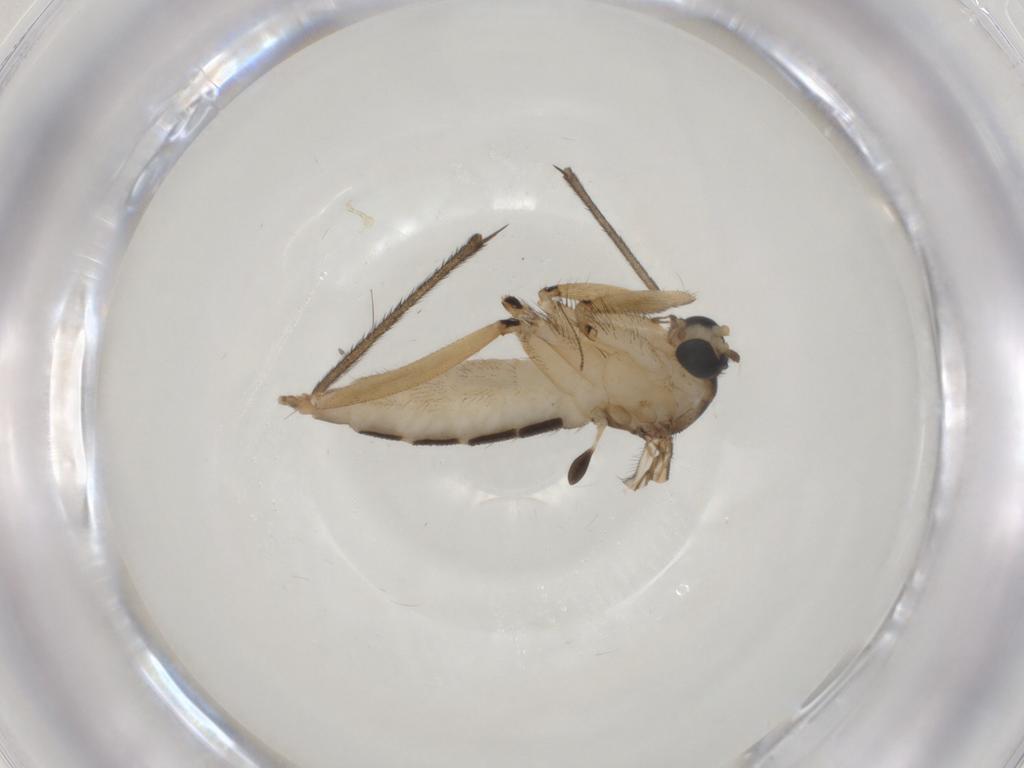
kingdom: Animalia
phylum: Arthropoda
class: Insecta
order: Diptera
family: Sciaridae
